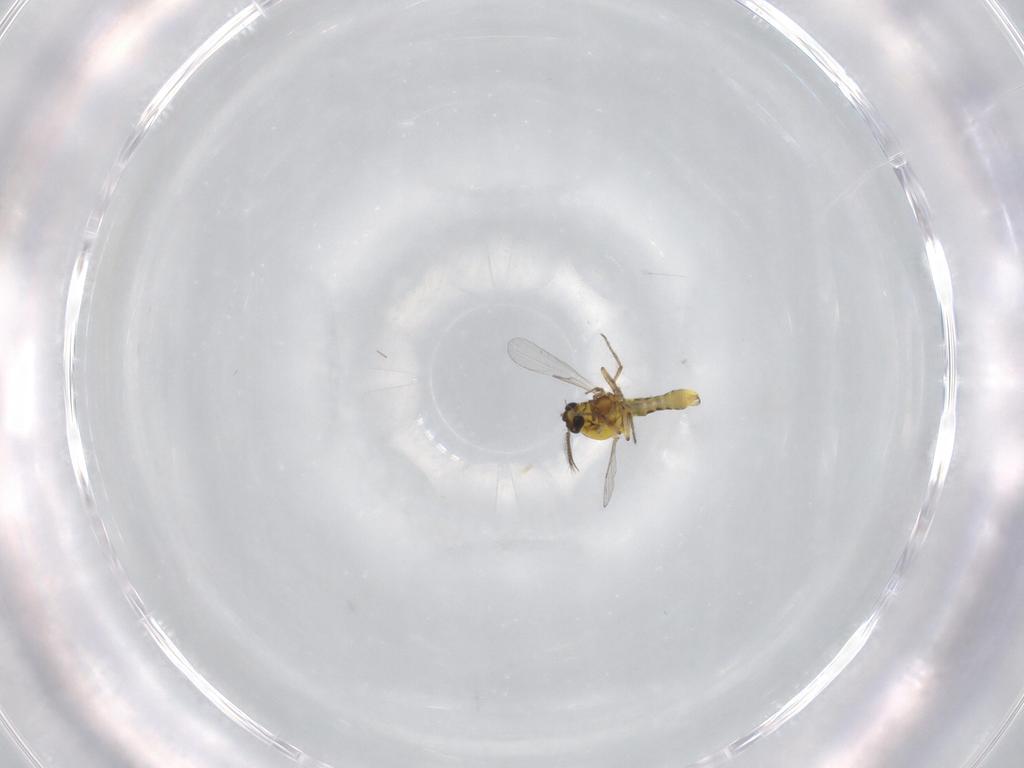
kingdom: Animalia
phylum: Arthropoda
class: Insecta
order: Diptera
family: Ceratopogonidae
